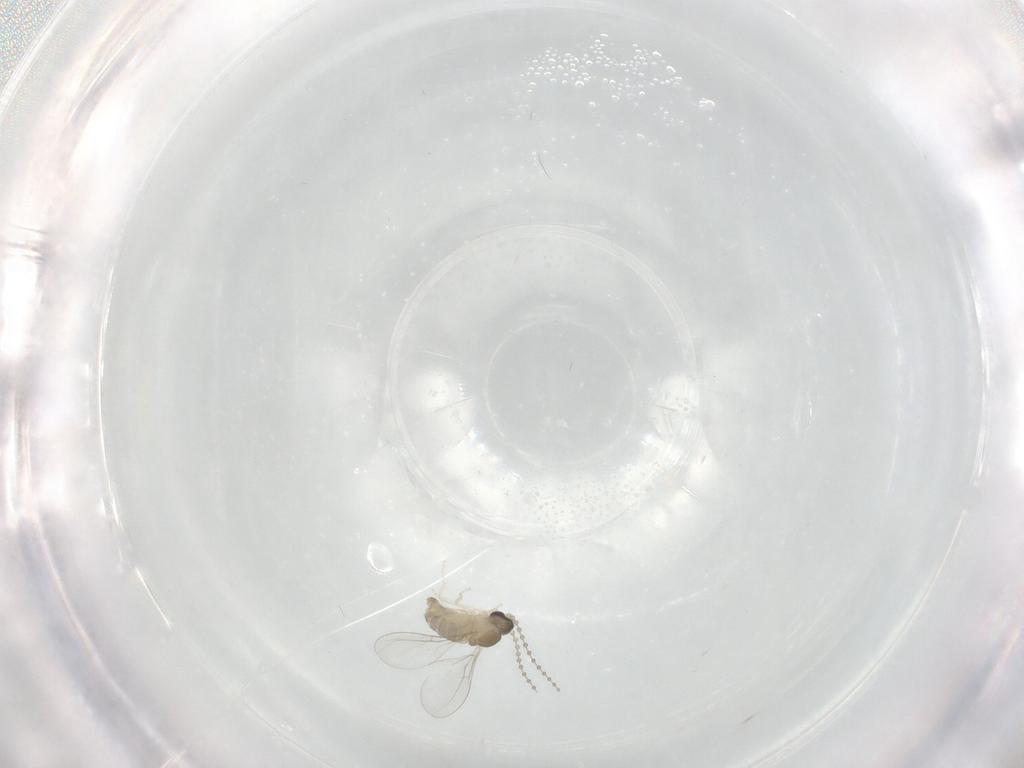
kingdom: Animalia
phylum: Arthropoda
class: Insecta
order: Diptera
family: Cecidomyiidae
